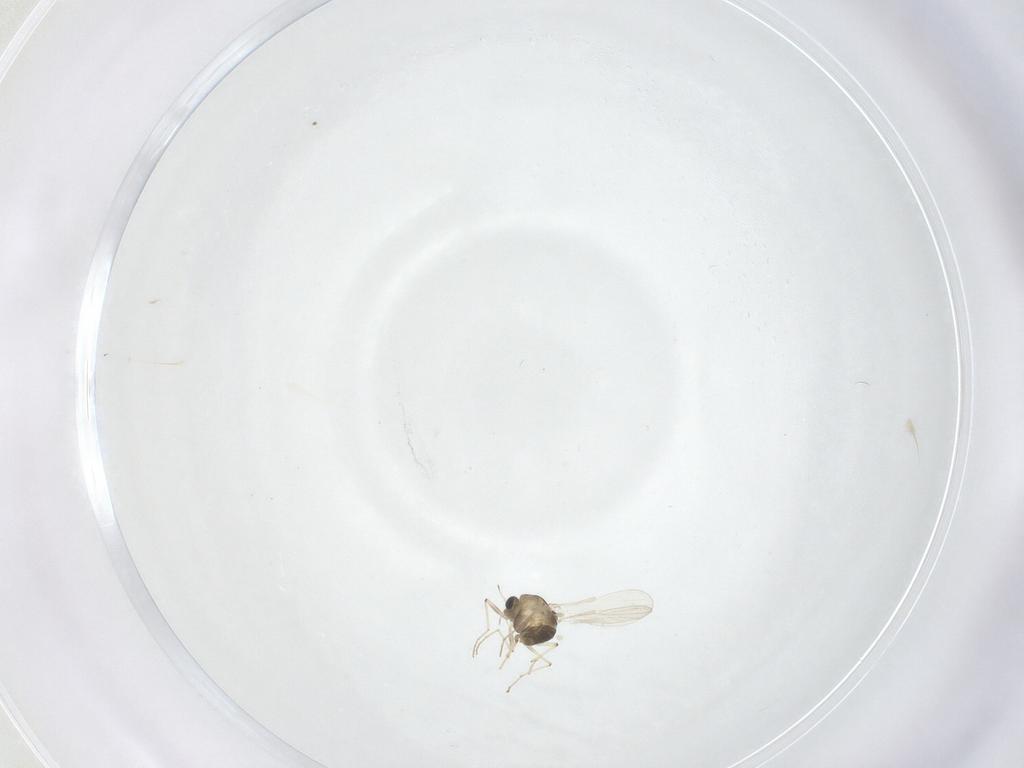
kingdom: Animalia
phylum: Arthropoda
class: Insecta
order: Diptera
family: Chironomidae
